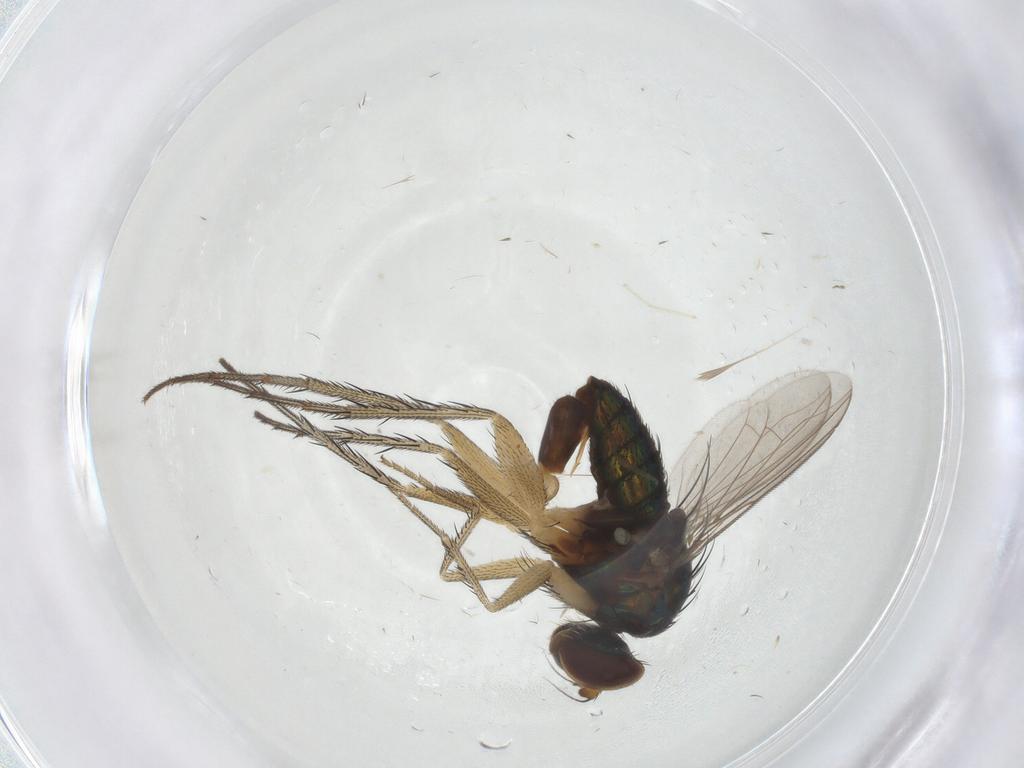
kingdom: Animalia
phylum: Arthropoda
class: Insecta
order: Diptera
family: Dolichopodidae
